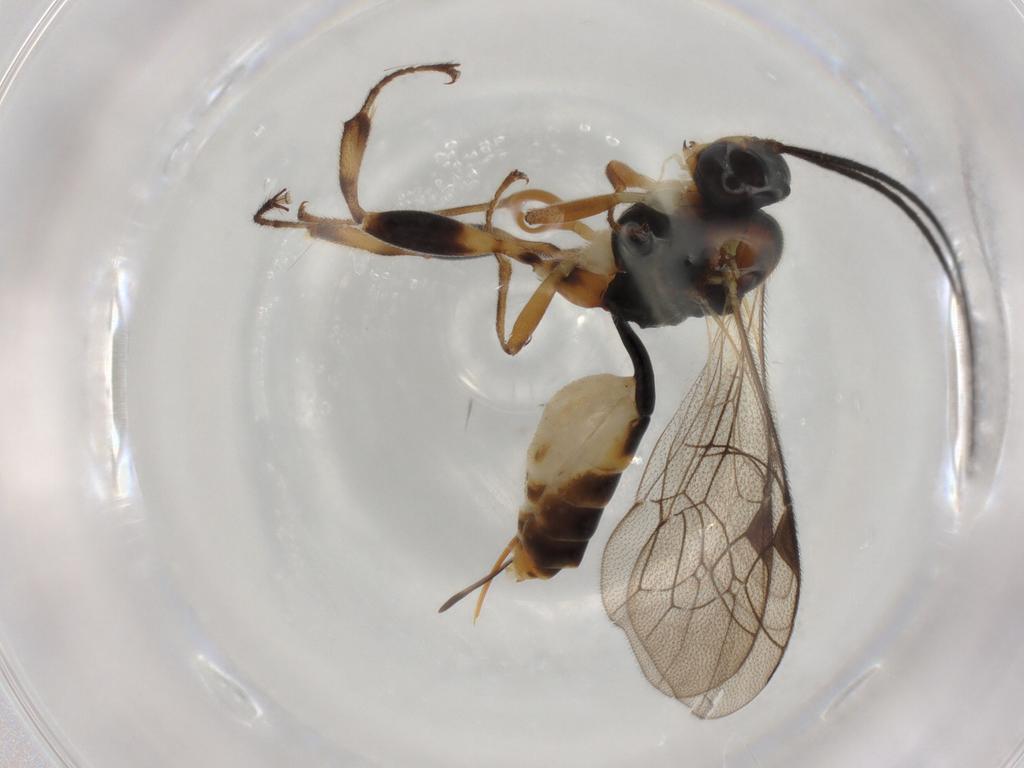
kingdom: Animalia
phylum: Arthropoda
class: Insecta
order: Hymenoptera
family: Ichneumonidae
